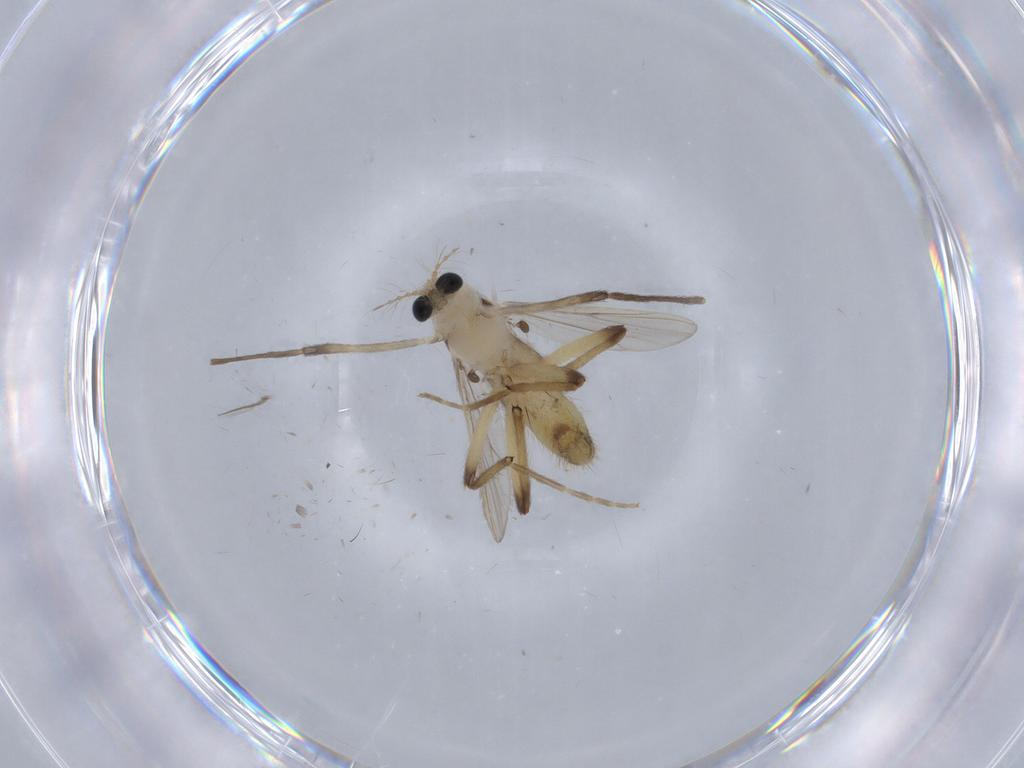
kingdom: Animalia
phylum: Arthropoda
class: Insecta
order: Diptera
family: Chironomidae
